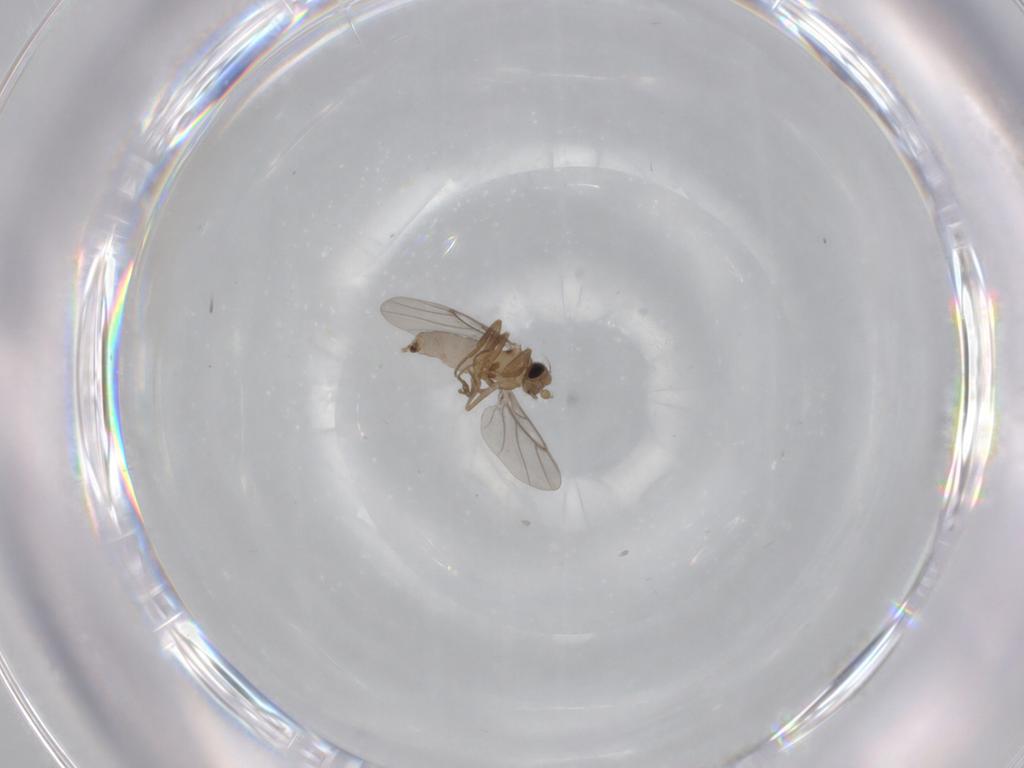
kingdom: Animalia
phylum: Arthropoda
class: Insecta
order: Diptera
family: Keroplatidae
